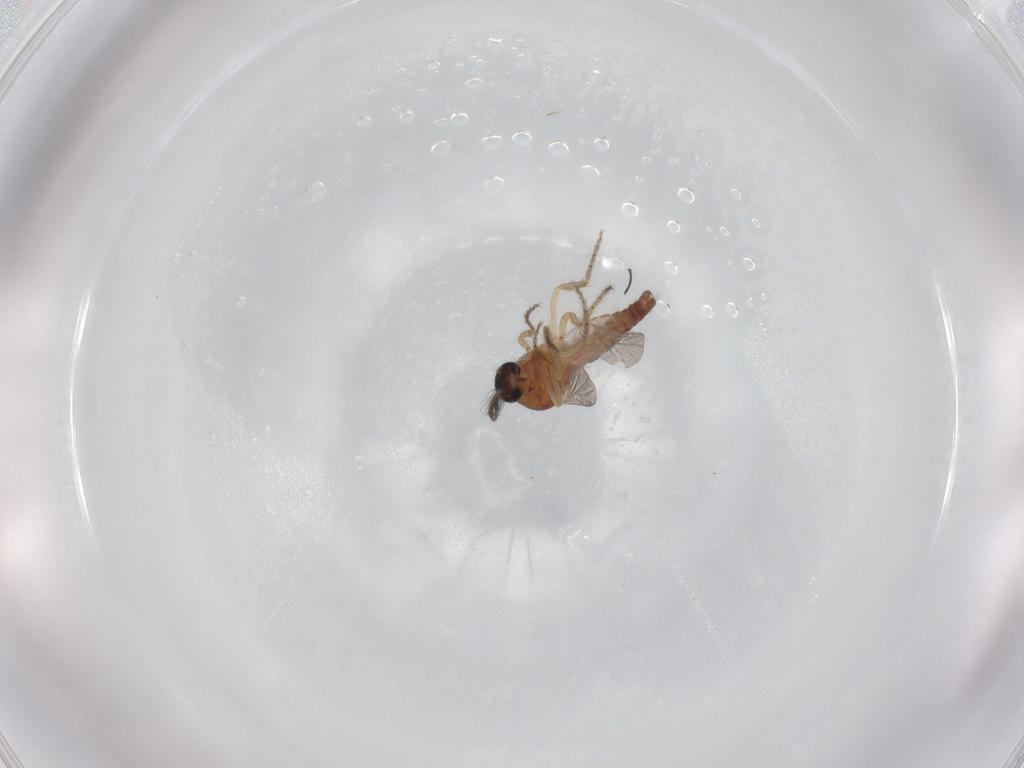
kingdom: Animalia
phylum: Arthropoda
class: Insecta
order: Diptera
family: Ceratopogonidae
